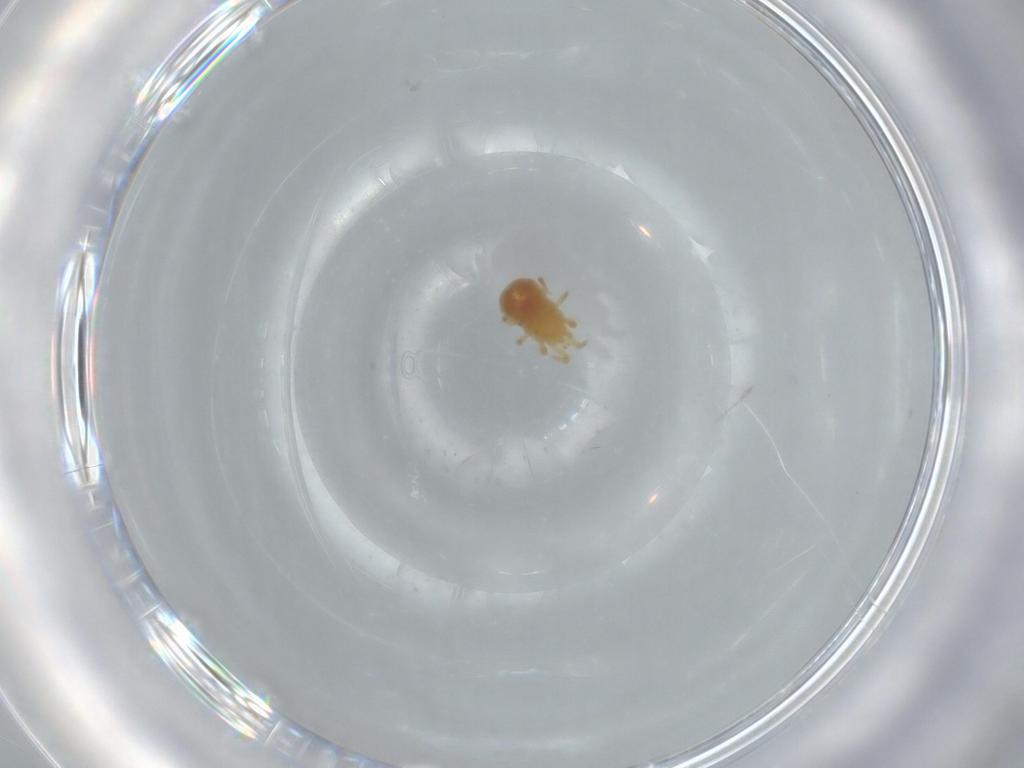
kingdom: Animalia
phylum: Arthropoda
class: Arachnida
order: Mesostigmata
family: Dermanyssidae
